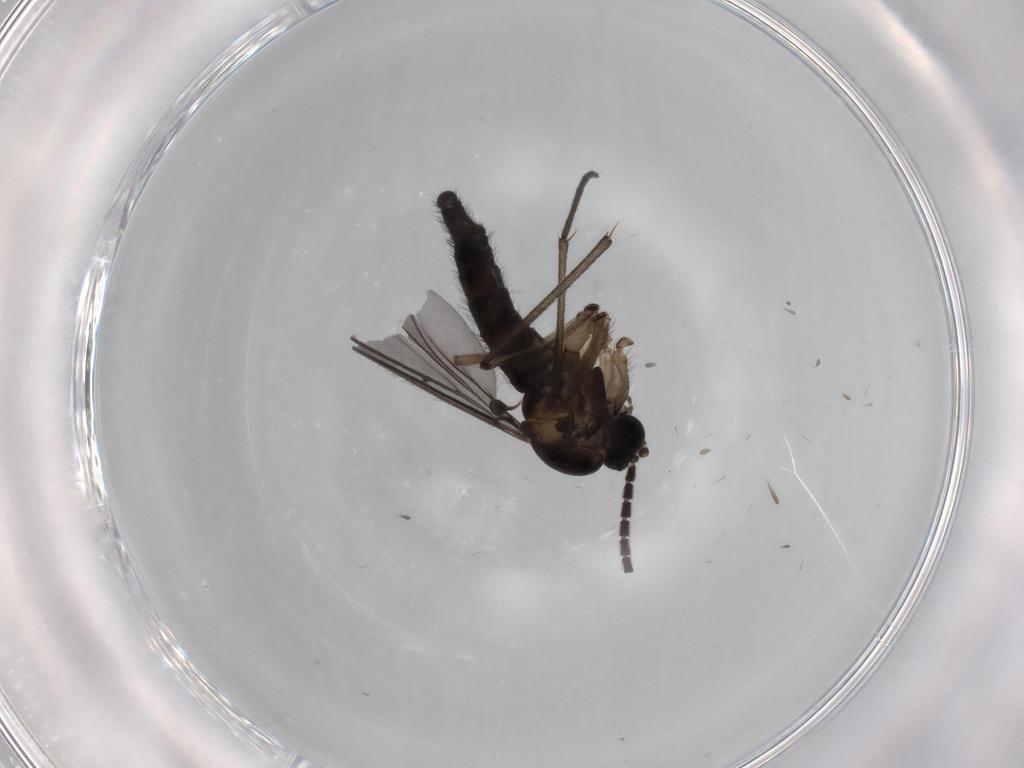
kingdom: Animalia
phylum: Arthropoda
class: Insecta
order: Diptera
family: Sciaridae
